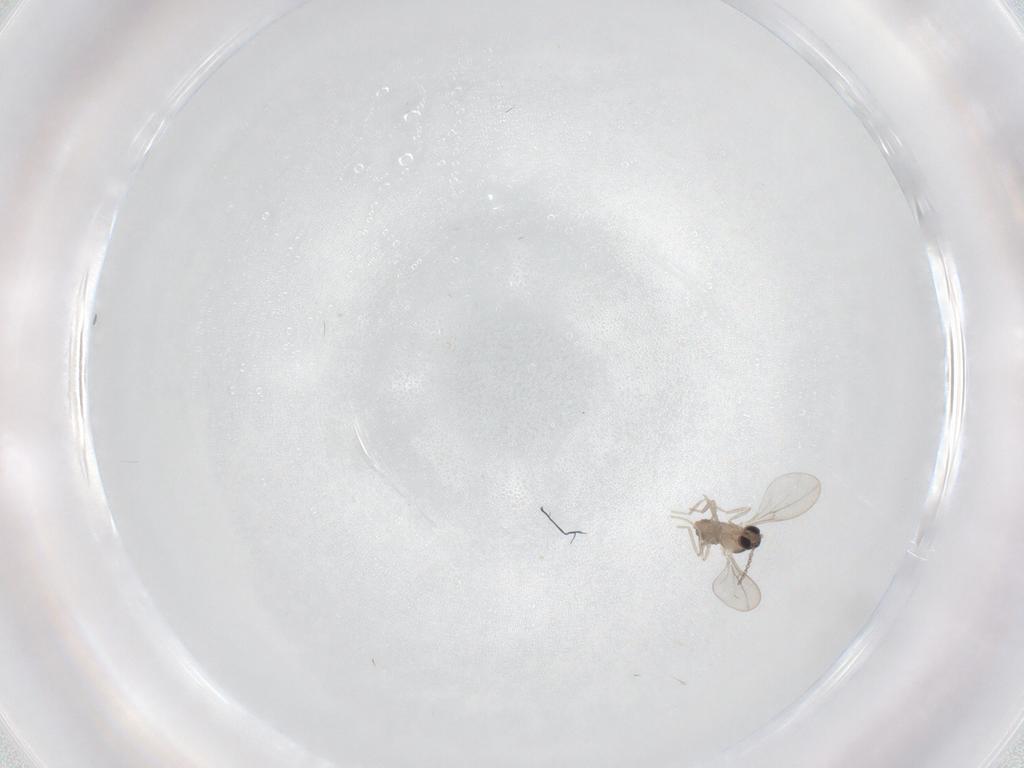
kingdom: Animalia
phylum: Arthropoda
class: Insecta
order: Diptera
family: Cecidomyiidae
